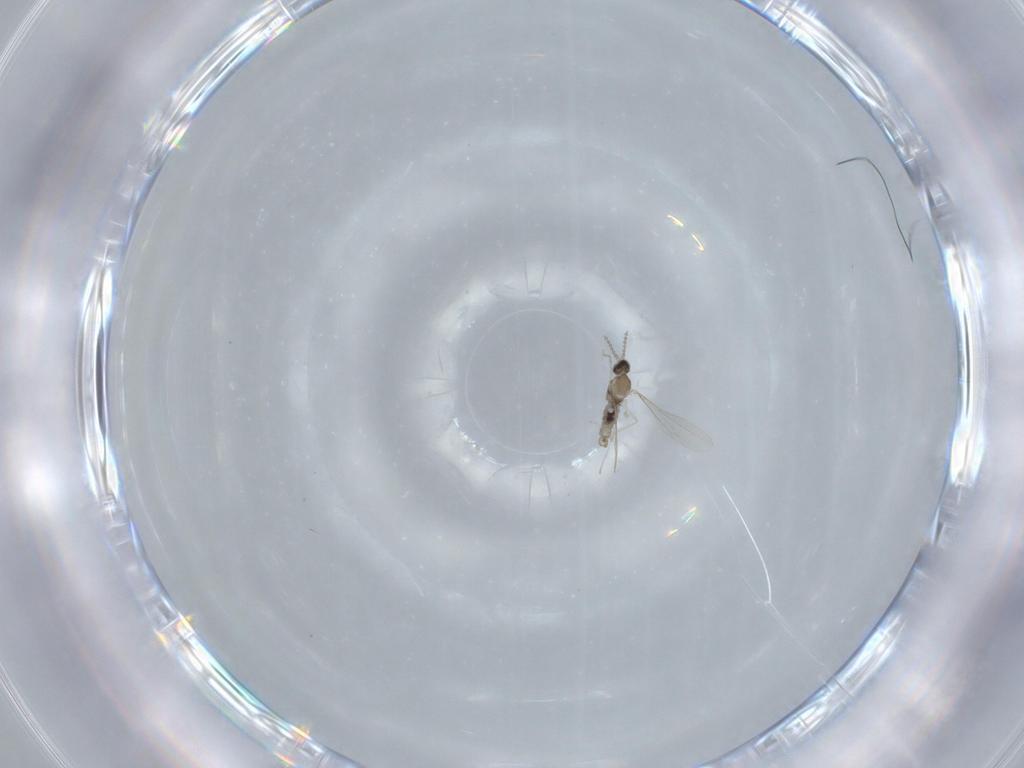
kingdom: Animalia
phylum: Arthropoda
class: Insecta
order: Diptera
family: Cecidomyiidae
